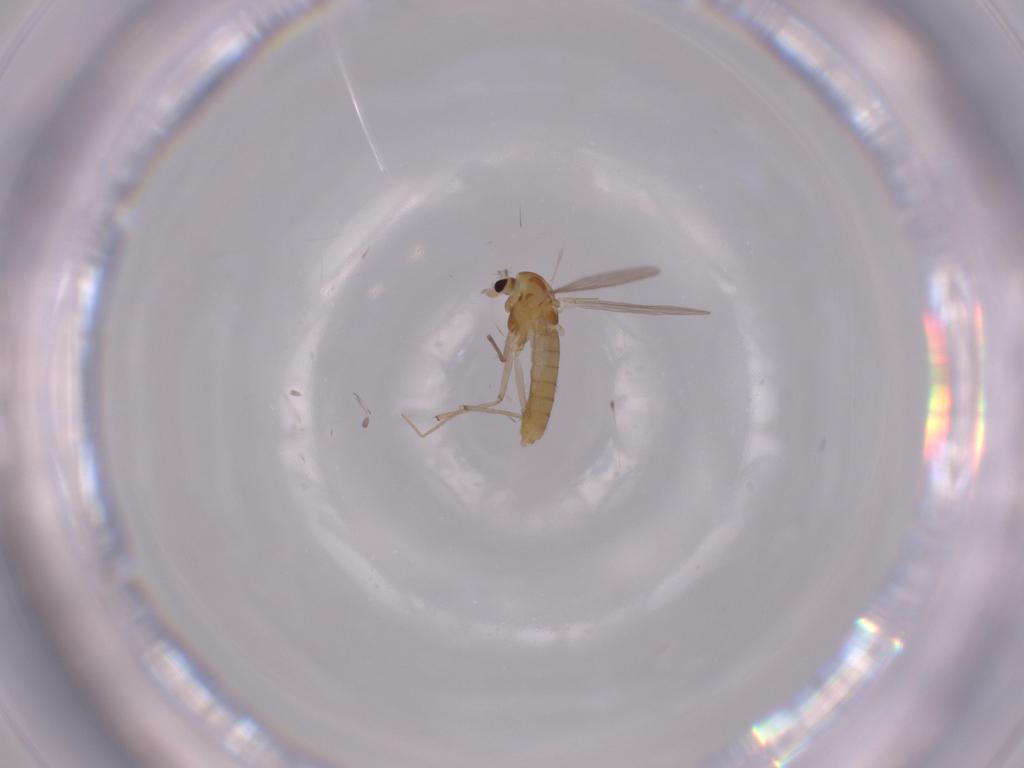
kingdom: Animalia
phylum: Arthropoda
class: Insecta
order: Diptera
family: Chironomidae
